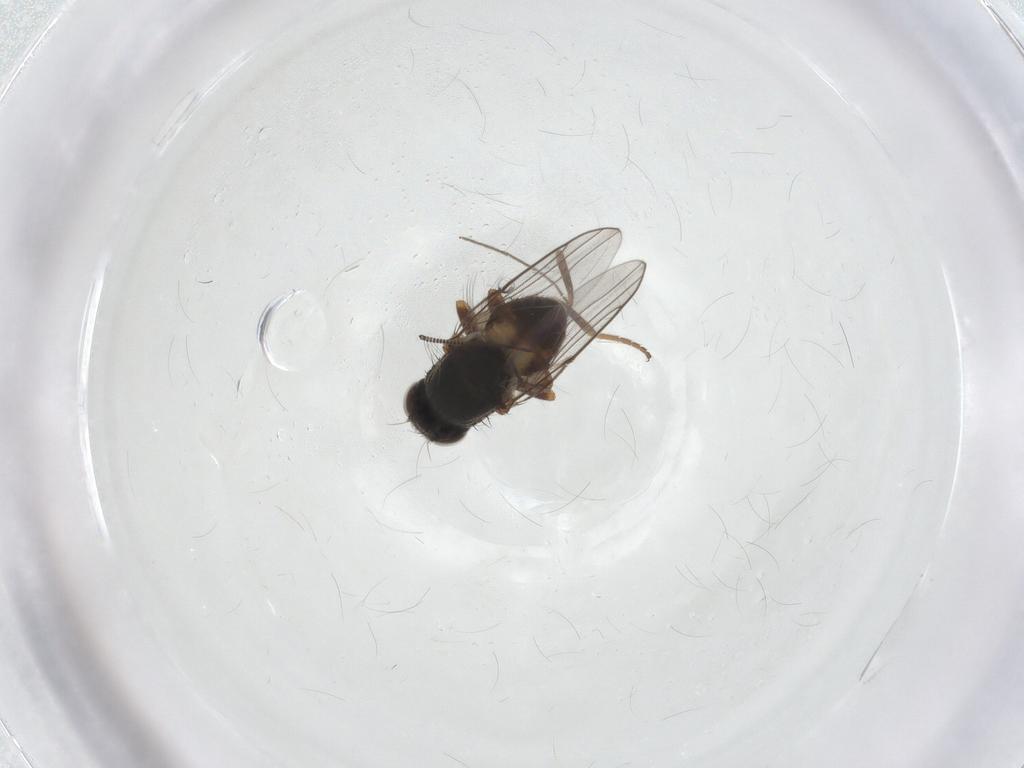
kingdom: Animalia
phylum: Arthropoda
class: Insecta
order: Diptera
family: Chloropidae
